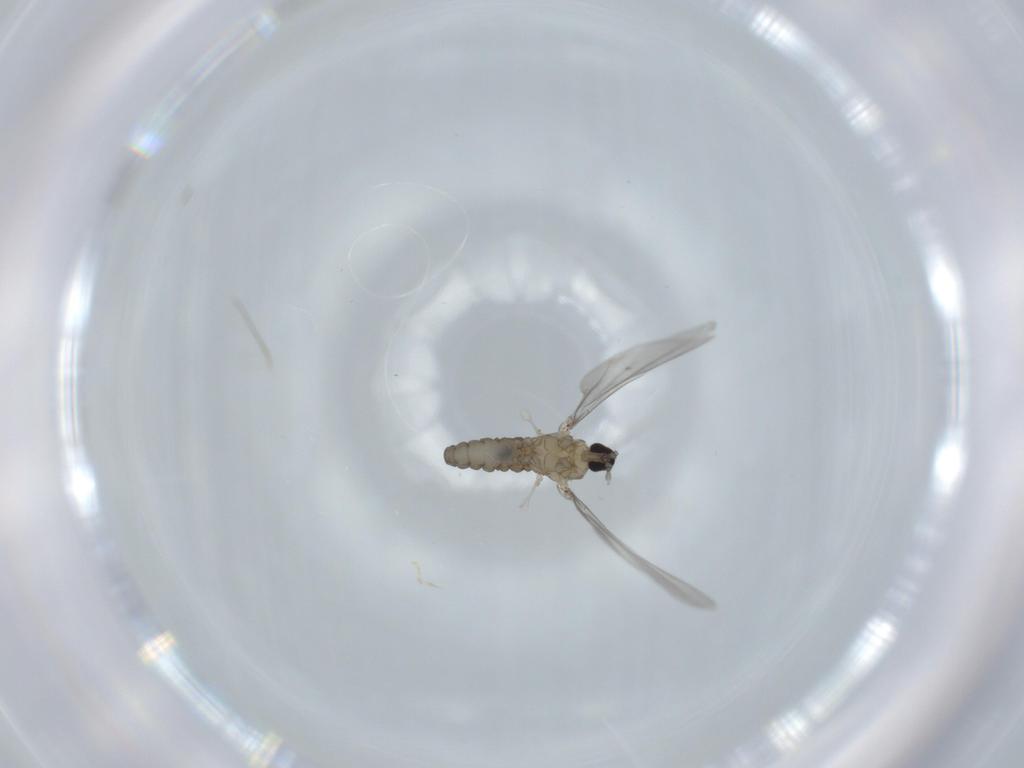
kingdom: Animalia
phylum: Arthropoda
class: Insecta
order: Diptera
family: Cecidomyiidae
